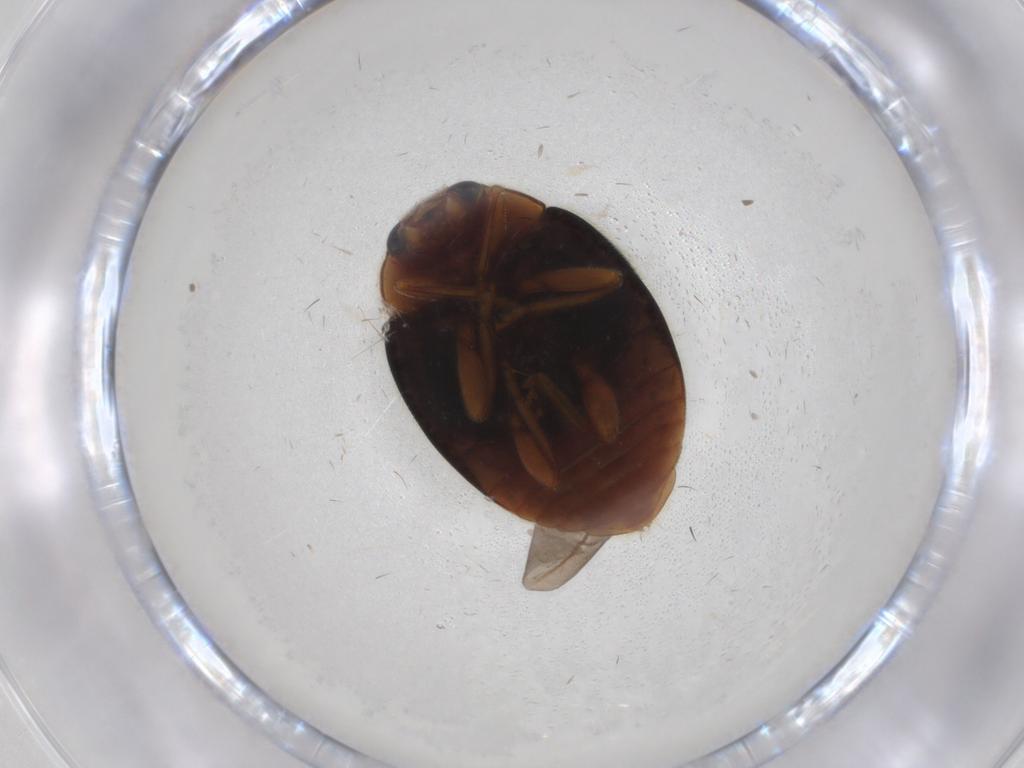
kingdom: Animalia
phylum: Arthropoda
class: Insecta
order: Coleoptera
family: Coccinellidae
